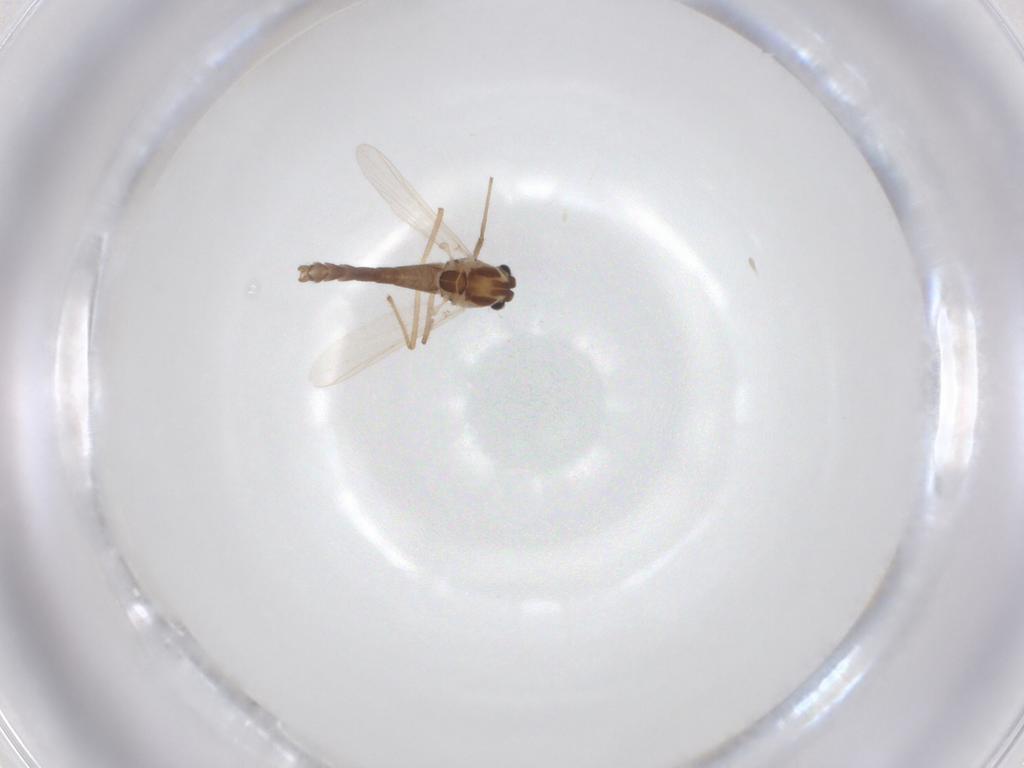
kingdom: Animalia
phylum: Arthropoda
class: Insecta
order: Diptera
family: Chironomidae
